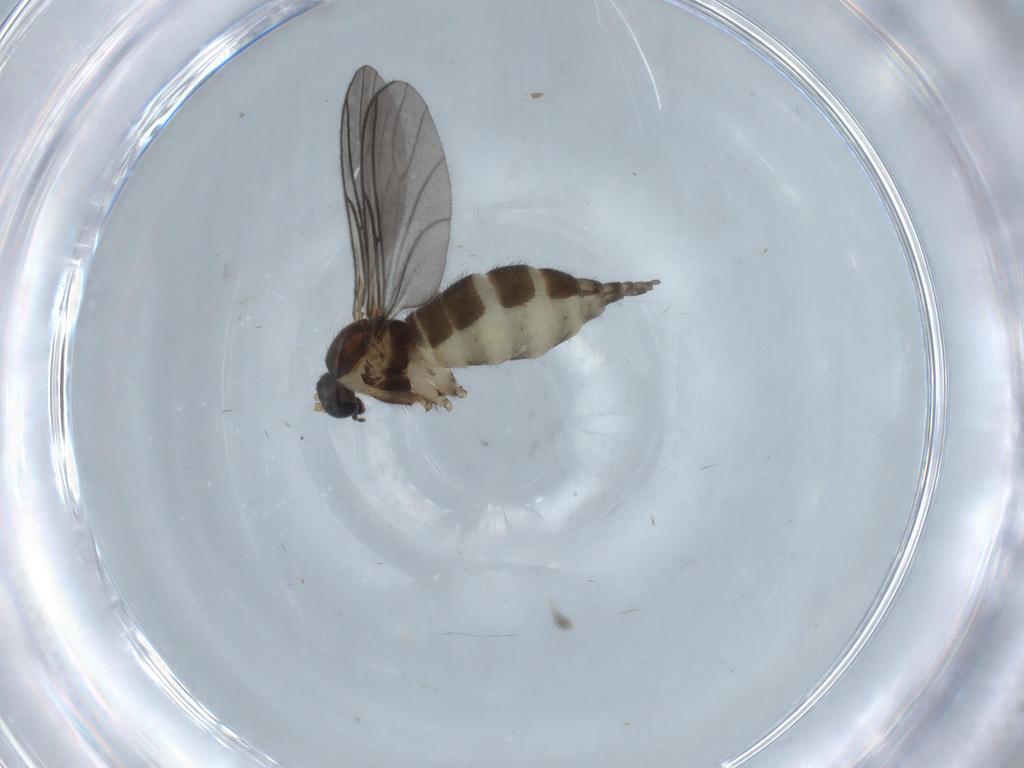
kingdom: Animalia
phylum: Arthropoda
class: Insecta
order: Diptera
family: Sciaridae
